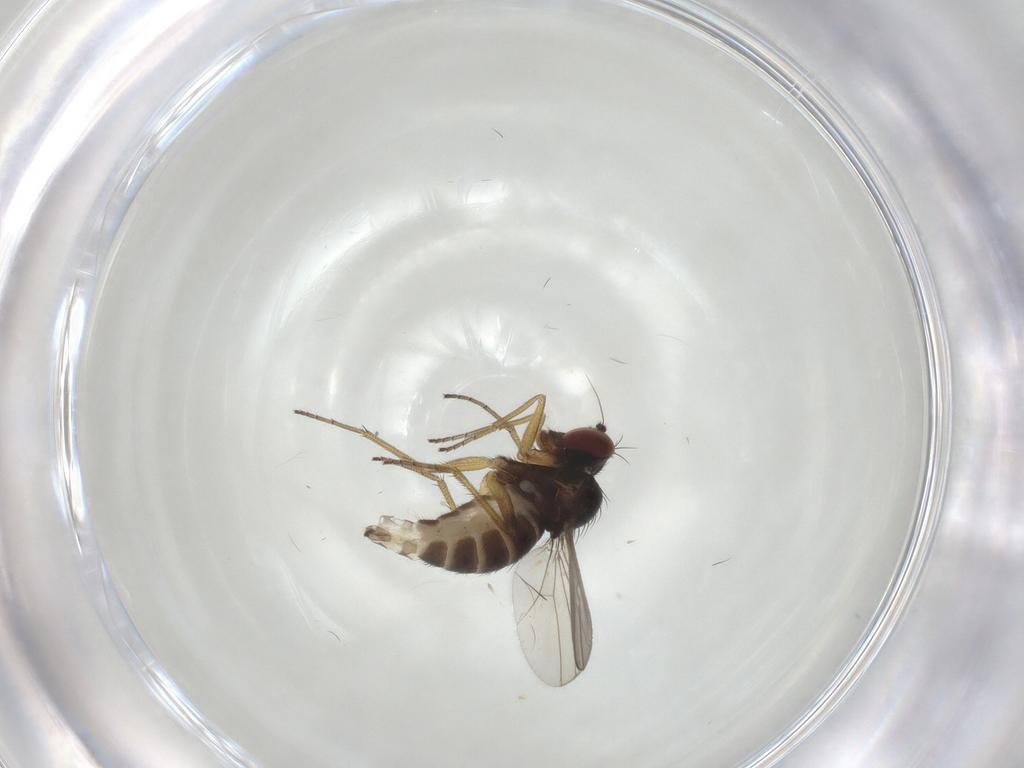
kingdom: Animalia
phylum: Arthropoda
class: Insecta
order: Diptera
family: Dolichopodidae
